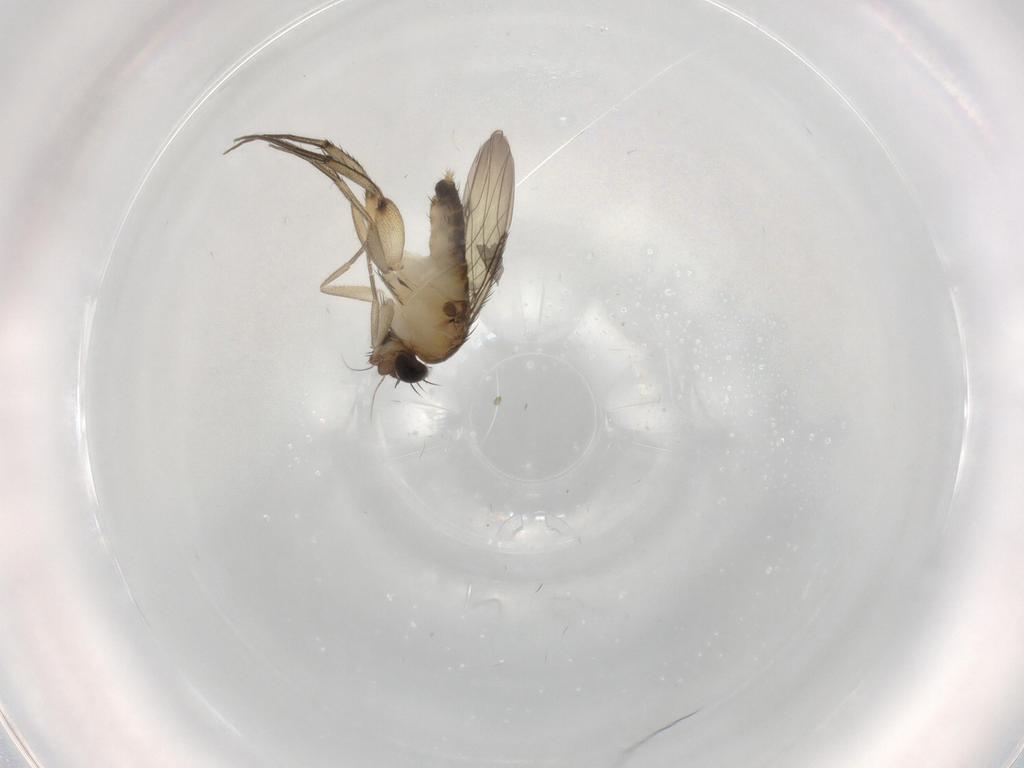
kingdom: Animalia
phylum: Arthropoda
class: Insecta
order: Diptera
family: Phoridae
